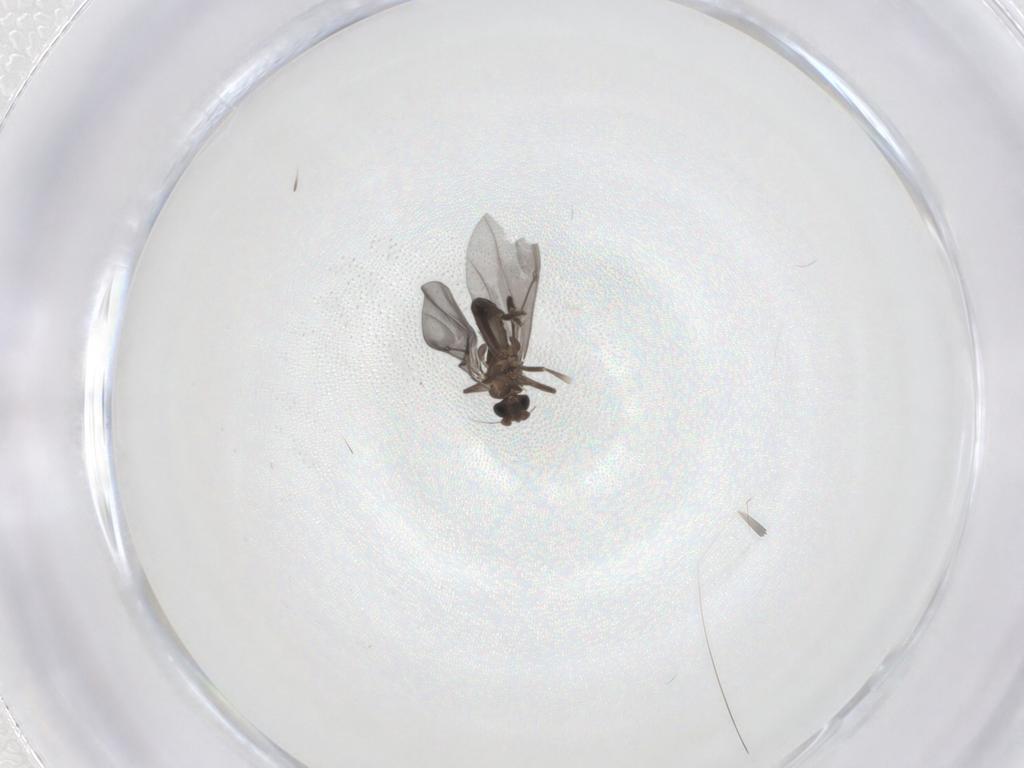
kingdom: Animalia
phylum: Arthropoda
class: Insecta
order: Diptera
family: Phoridae
